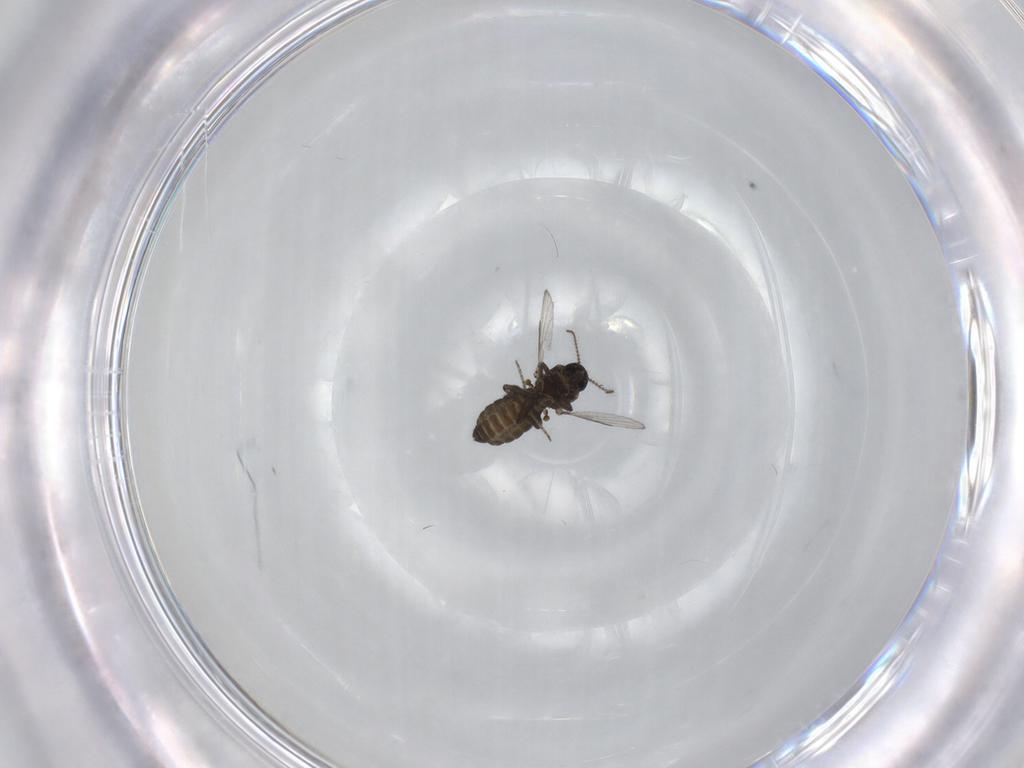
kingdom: Animalia
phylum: Arthropoda
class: Insecta
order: Diptera
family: Ceratopogonidae
